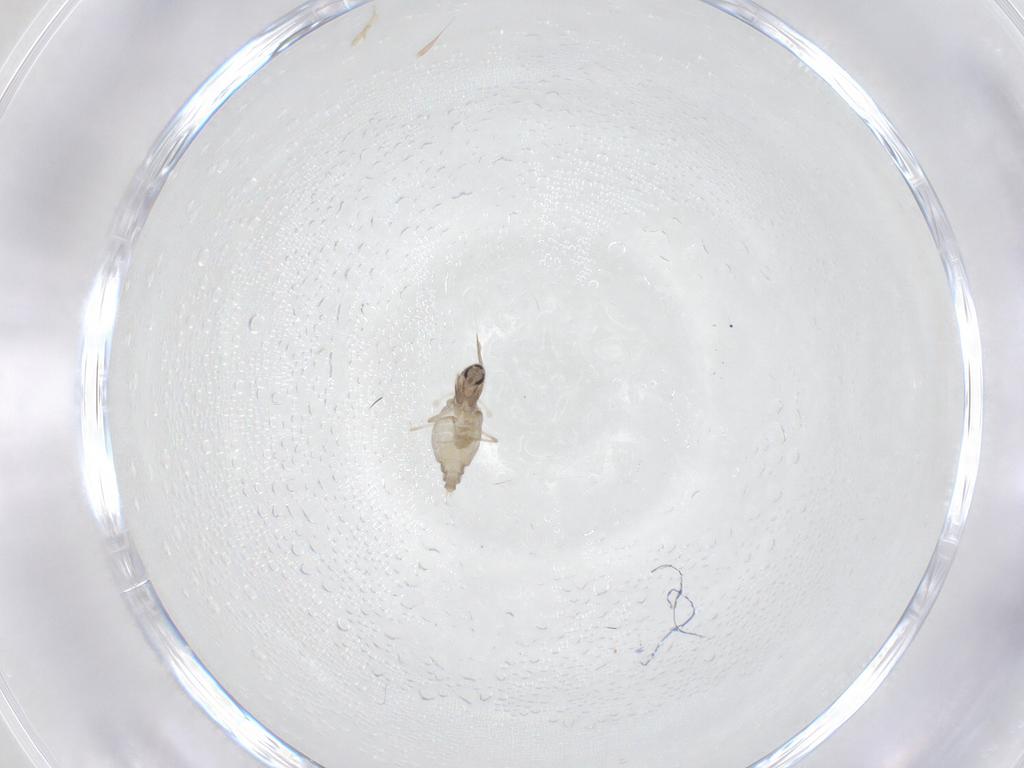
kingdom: Animalia
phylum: Arthropoda
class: Insecta
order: Diptera
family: Cecidomyiidae
